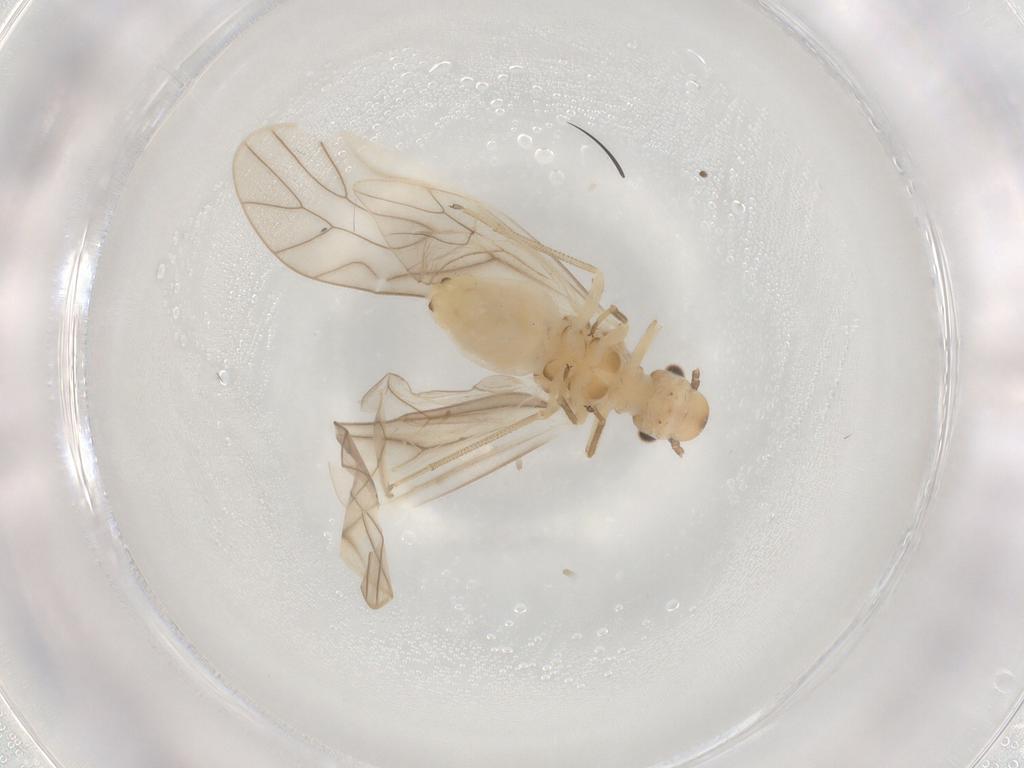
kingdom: Animalia
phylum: Arthropoda
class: Insecta
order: Psocodea
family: Caeciliusidae
